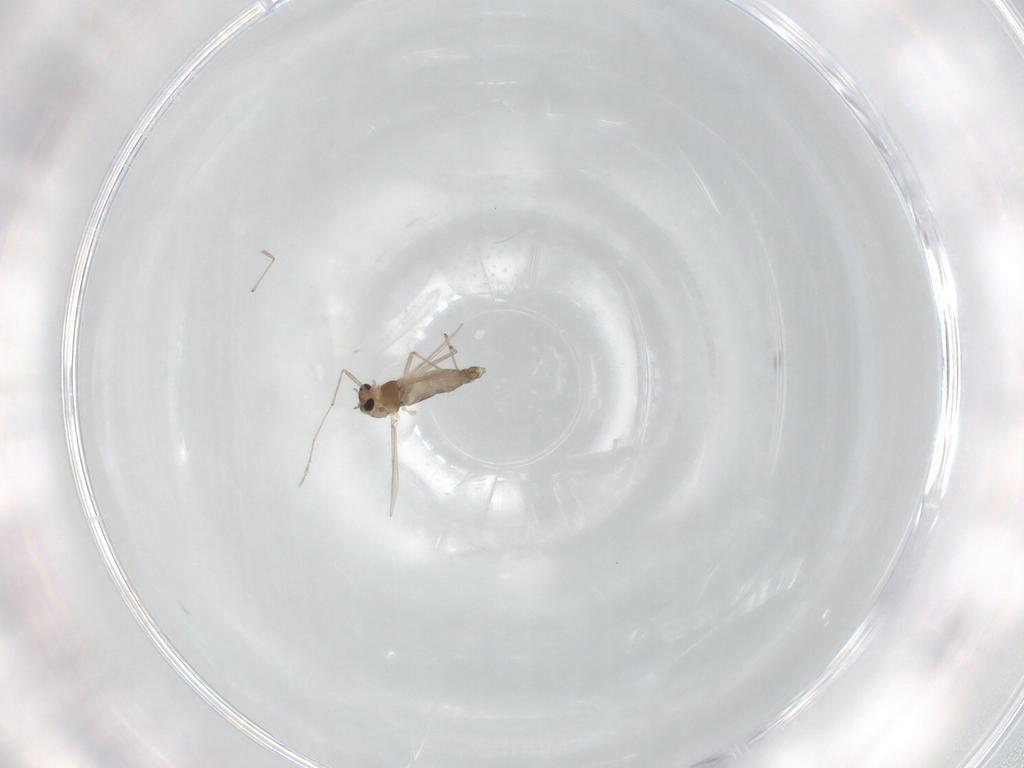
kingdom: Animalia
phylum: Arthropoda
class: Insecta
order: Diptera
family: Chironomidae
